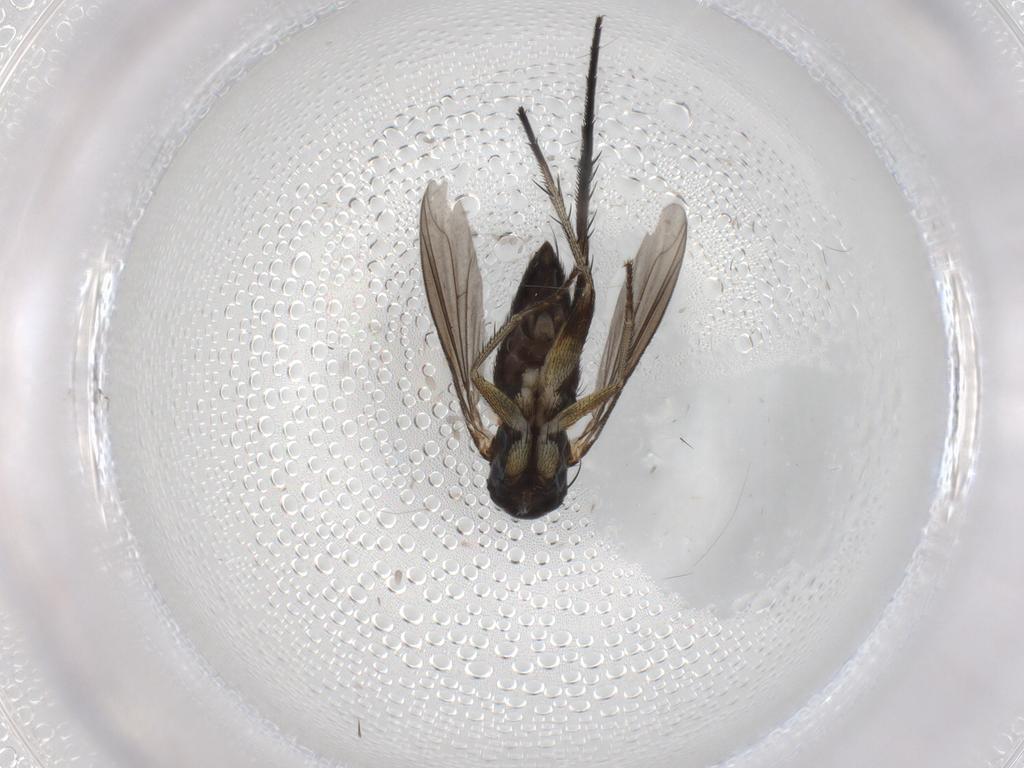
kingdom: Animalia
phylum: Arthropoda
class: Insecta
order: Diptera
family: Dolichopodidae
